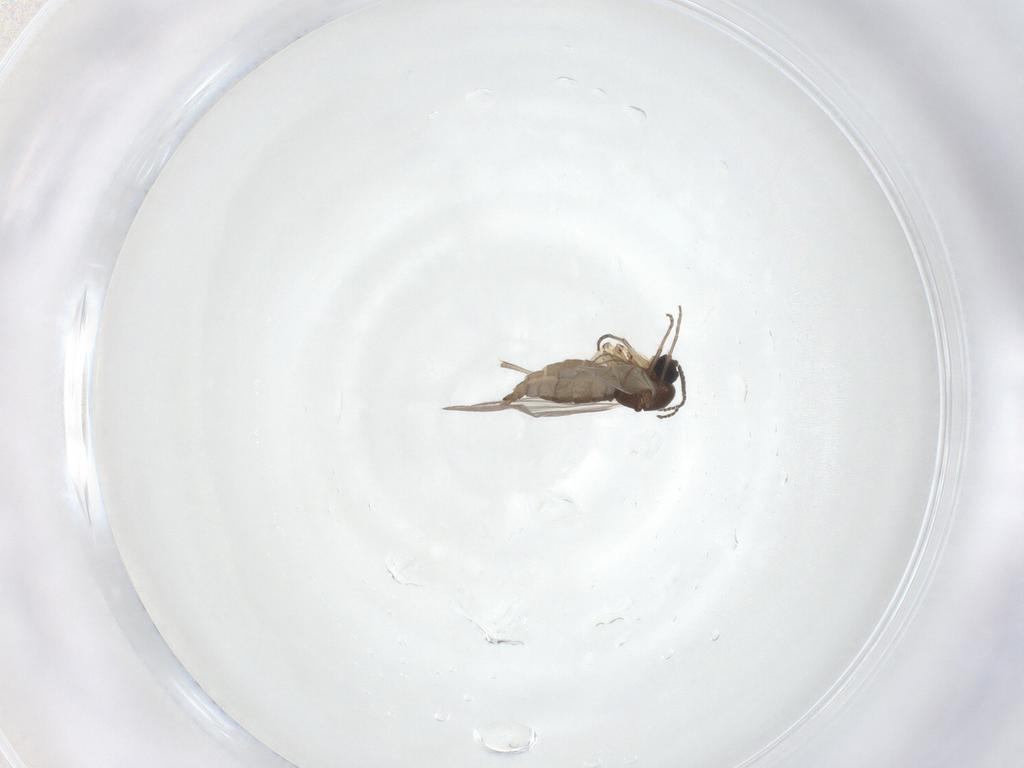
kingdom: Animalia
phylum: Arthropoda
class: Insecta
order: Diptera
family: Sciaridae
